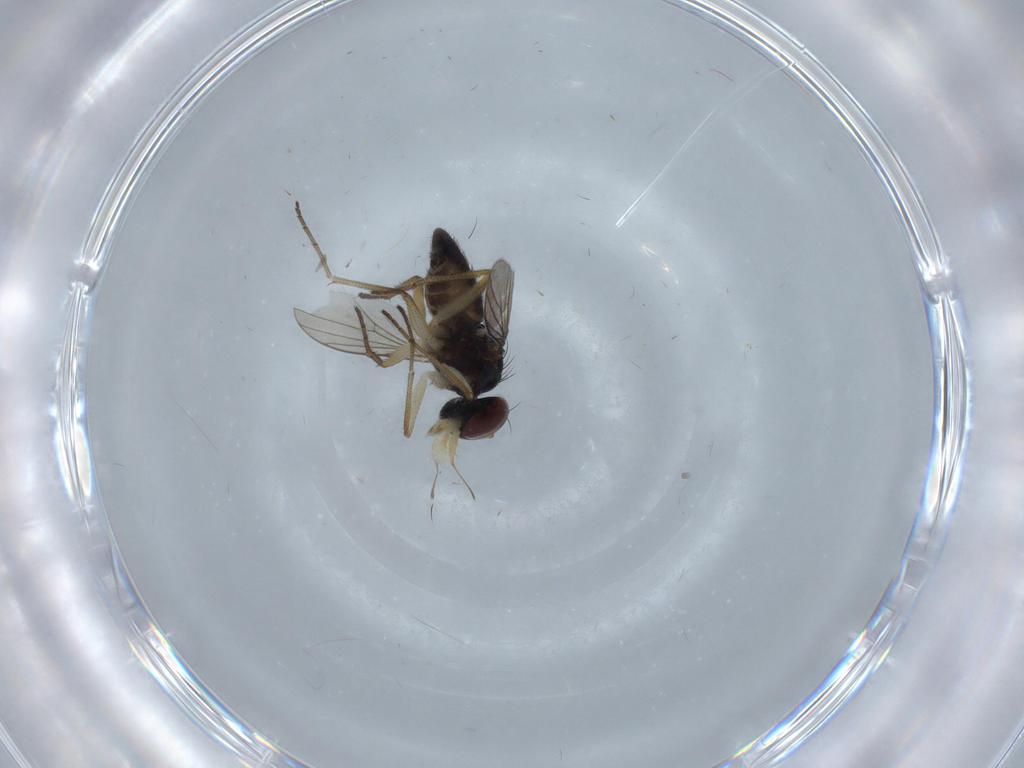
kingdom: Animalia
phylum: Arthropoda
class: Insecta
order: Diptera
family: Dolichopodidae
